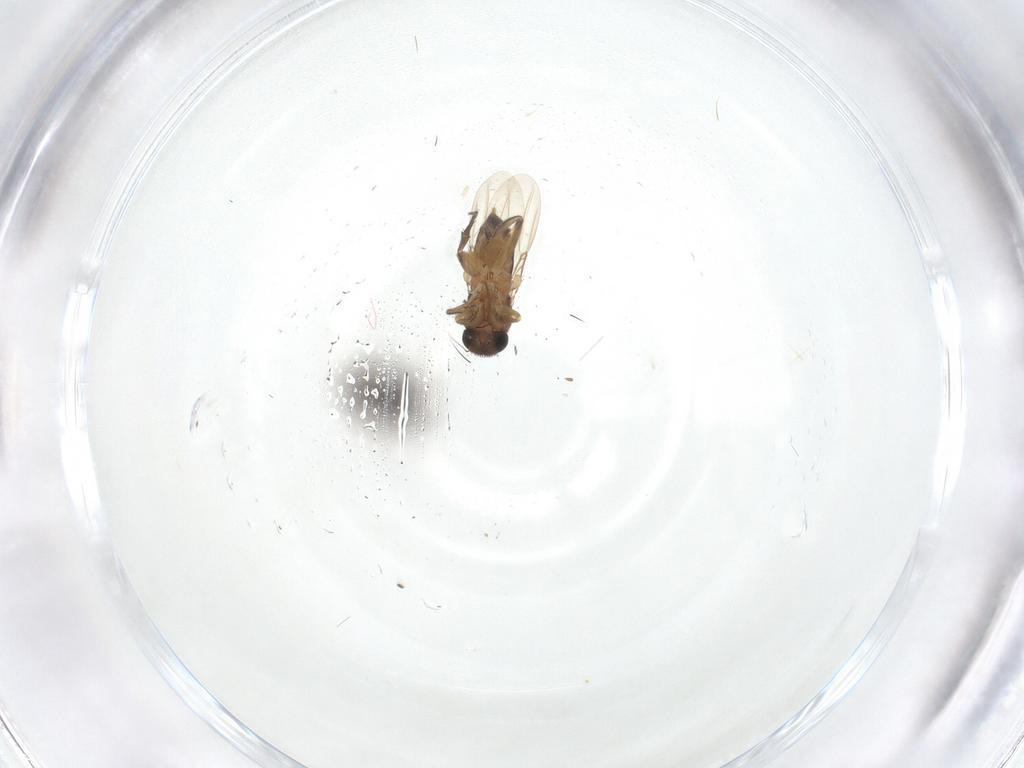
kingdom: Animalia
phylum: Arthropoda
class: Insecta
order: Diptera
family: Phoridae
